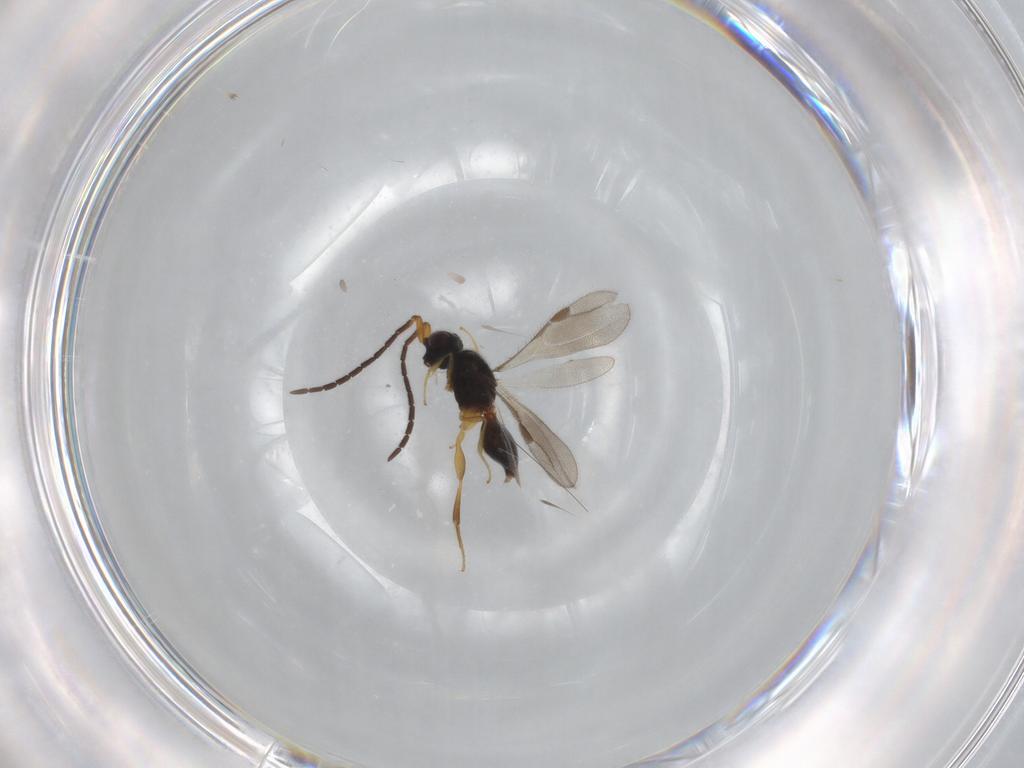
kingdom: Animalia
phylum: Arthropoda
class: Insecta
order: Hymenoptera
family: Megaspilidae
